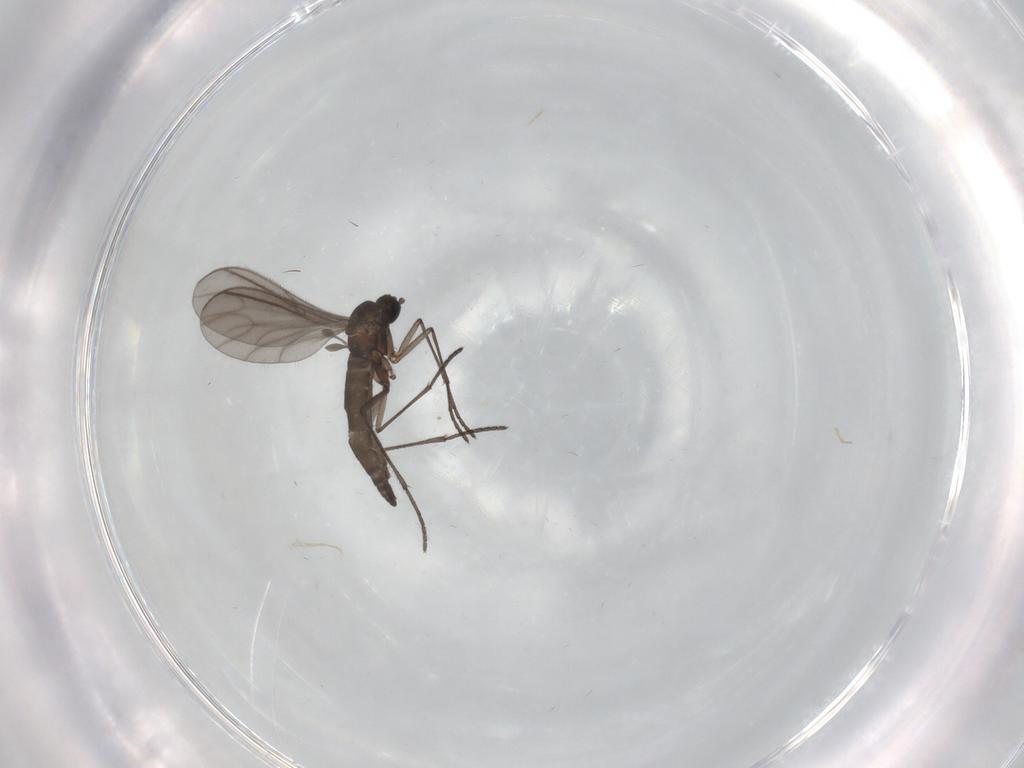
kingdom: Animalia
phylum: Arthropoda
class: Insecta
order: Diptera
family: Sciaridae
